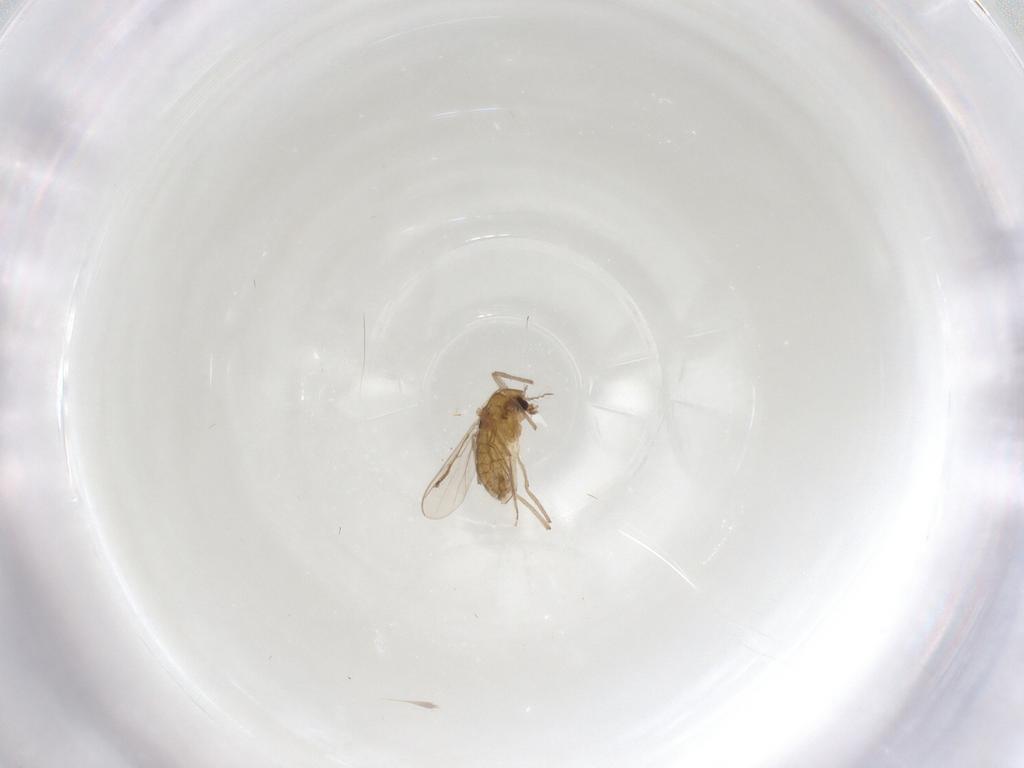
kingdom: Animalia
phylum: Arthropoda
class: Insecta
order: Diptera
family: Chironomidae
